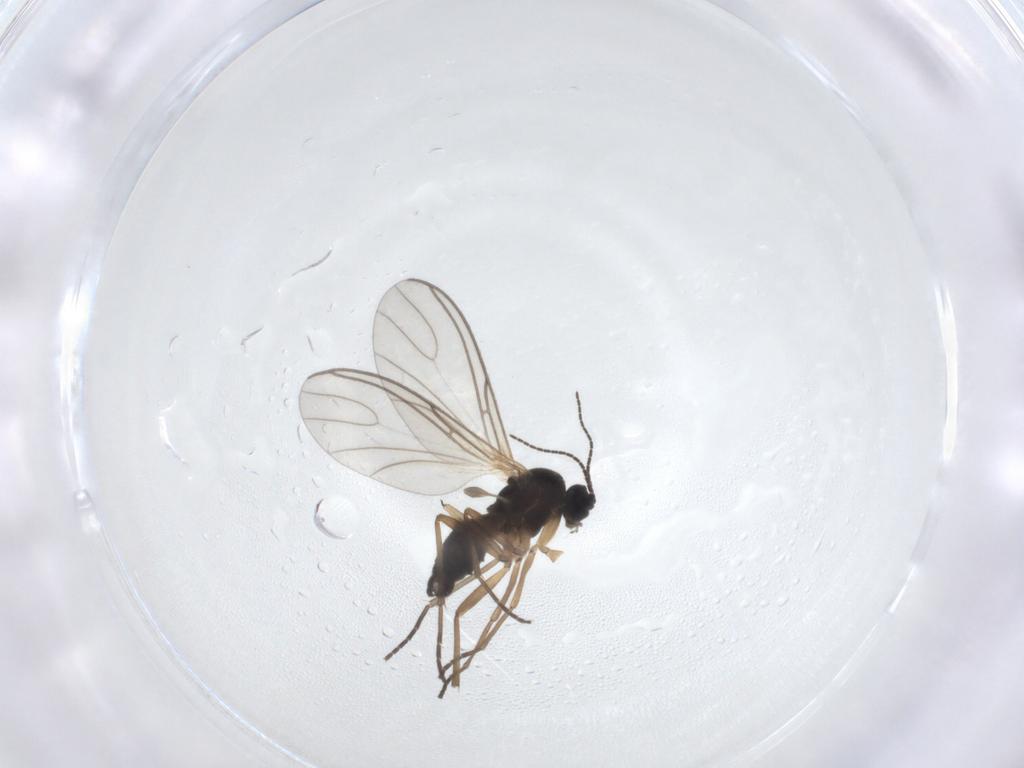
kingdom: Animalia
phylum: Arthropoda
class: Insecta
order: Diptera
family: Sciaridae
